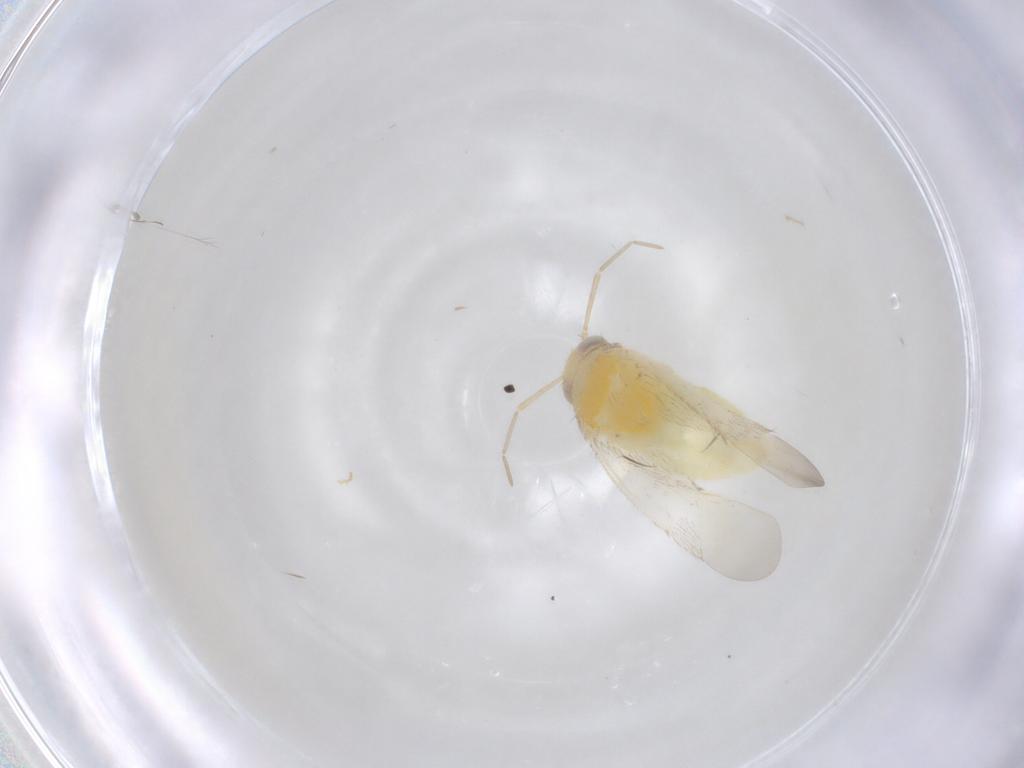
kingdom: Animalia
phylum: Arthropoda
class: Insecta
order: Hemiptera
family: Miridae
